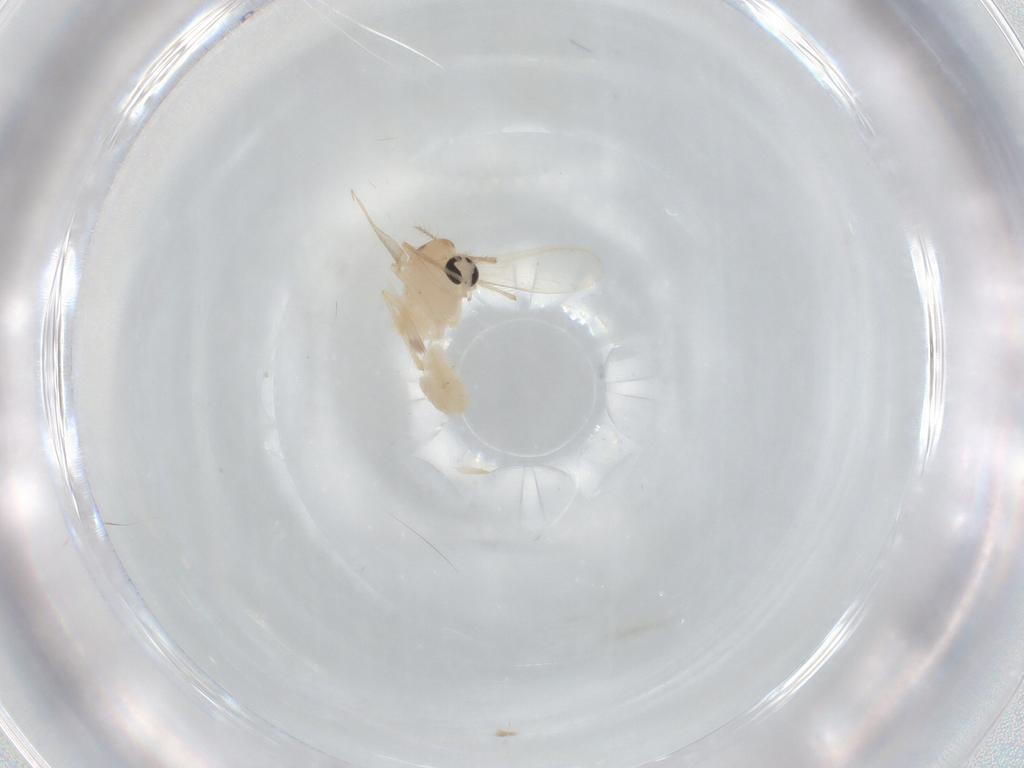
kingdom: Animalia
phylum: Arthropoda
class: Insecta
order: Diptera
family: Chironomidae
